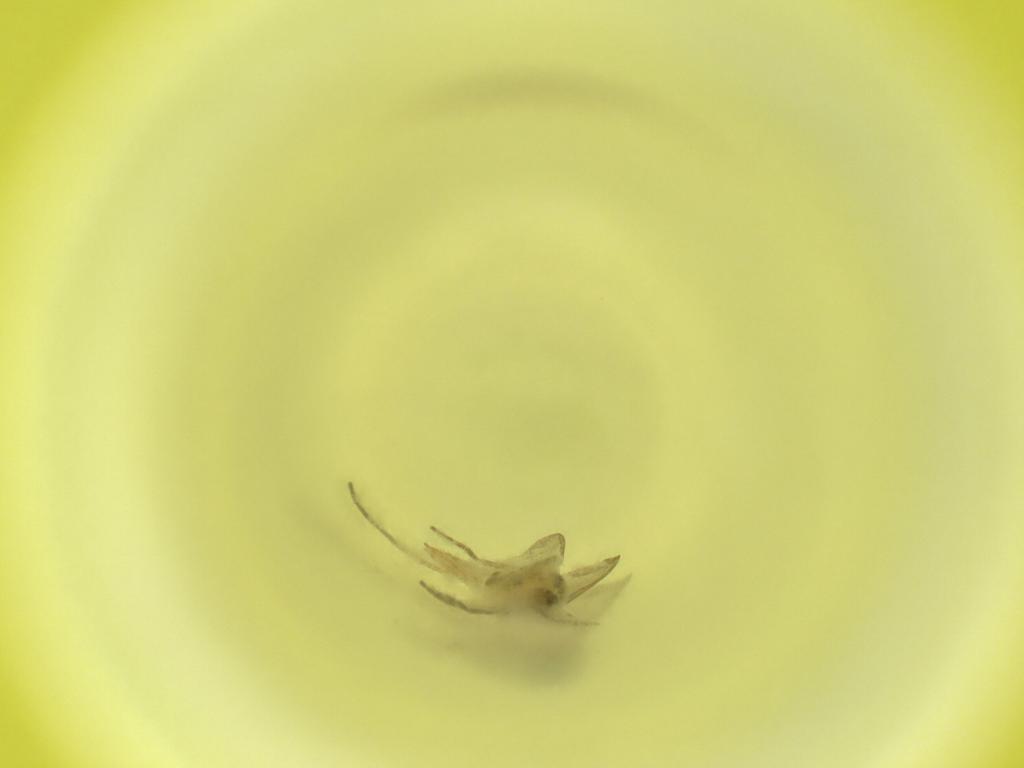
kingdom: Animalia
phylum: Arthropoda
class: Insecta
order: Diptera
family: Cecidomyiidae
